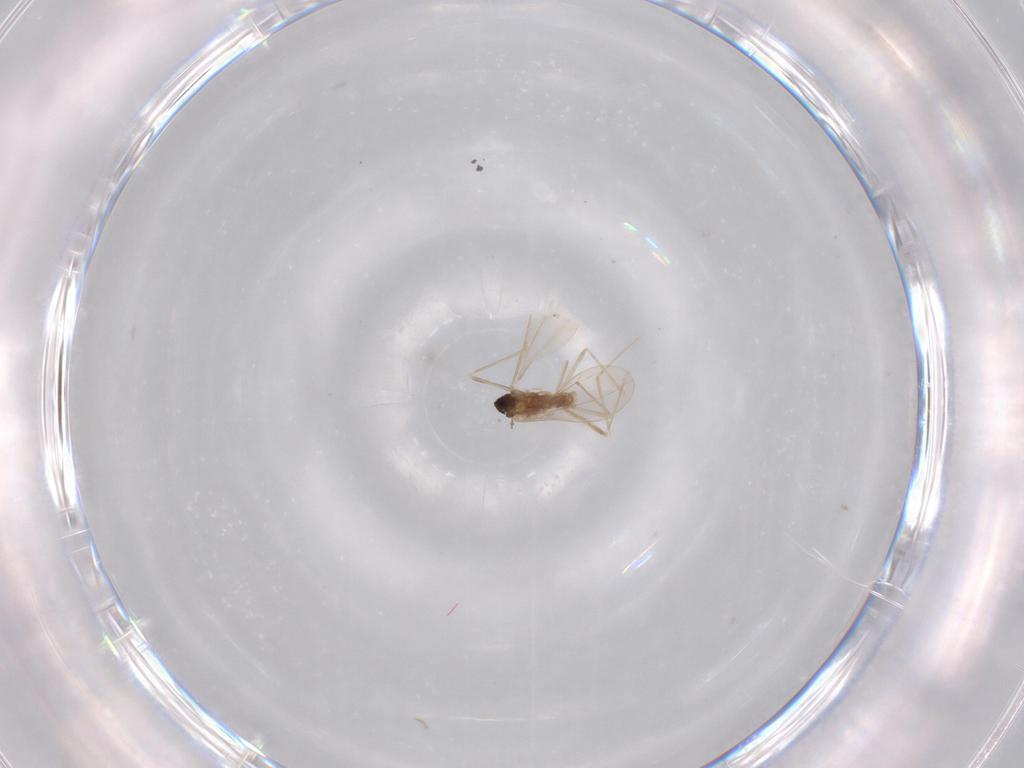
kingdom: Animalia
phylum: Arthropoda
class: Insecta
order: Diptera
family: Cecidomyiidae
